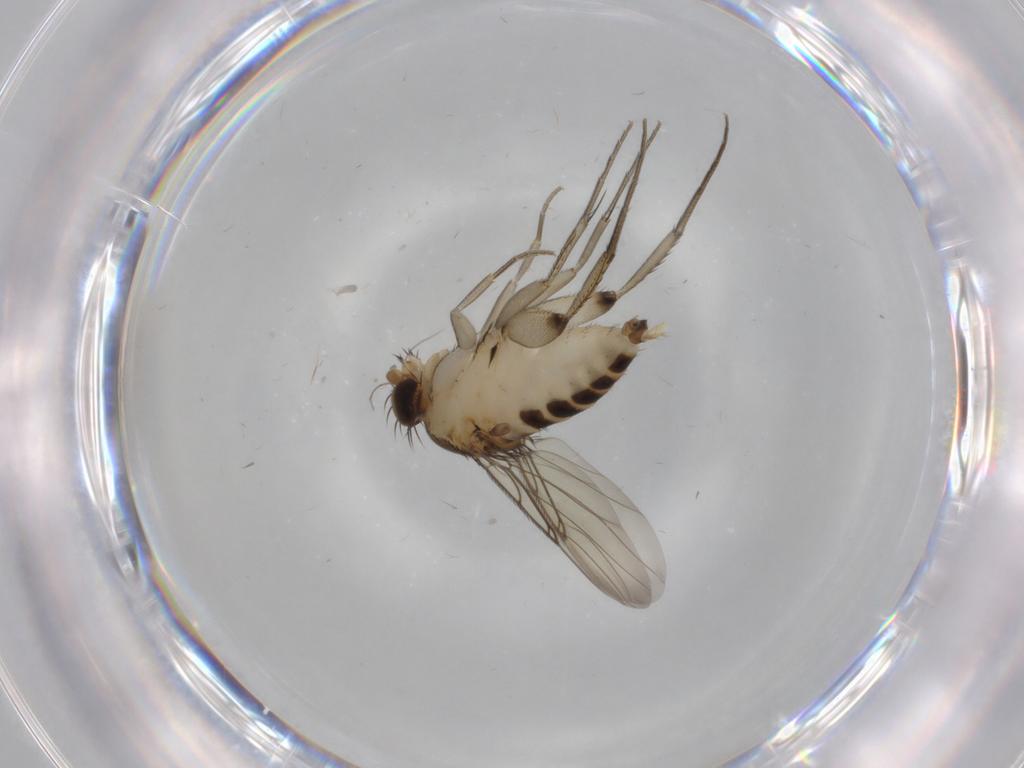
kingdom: Animalia
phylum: Arthropoda
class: Insecta
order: Diptera
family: Phoridae
